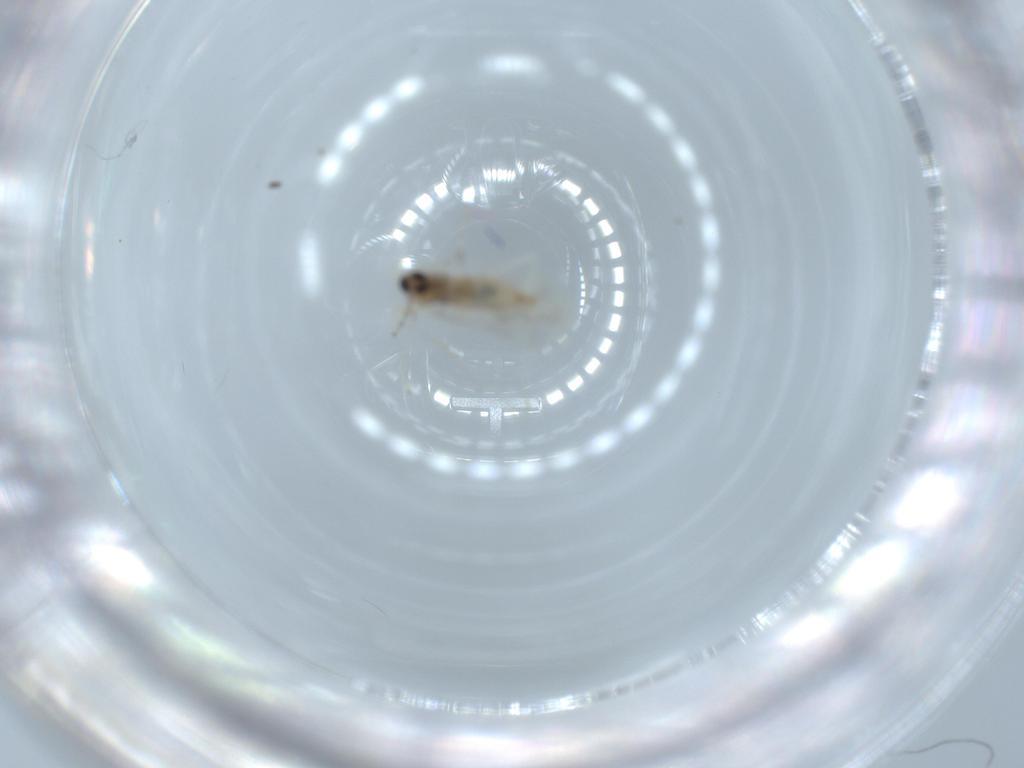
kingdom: Animalia
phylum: Arthropoda
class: Insecta
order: Diptera
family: Cecidomyiidae
